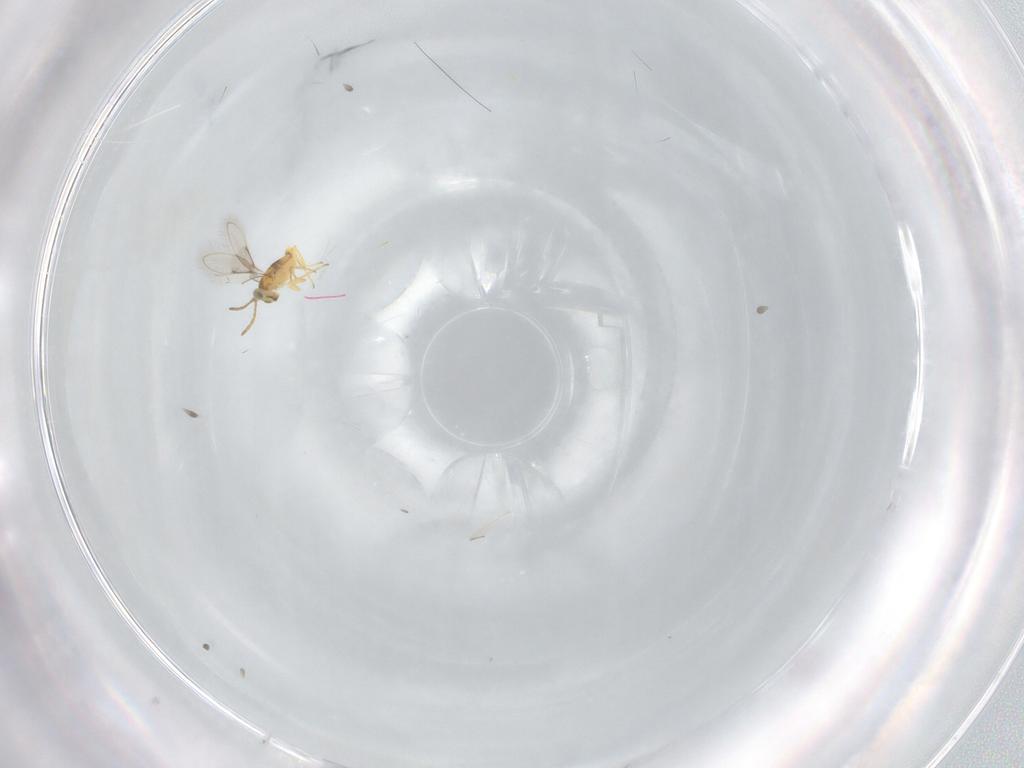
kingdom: Animalia
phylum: Arthropoda
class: Insecta
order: Hymenoptera
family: Aphelinidae
